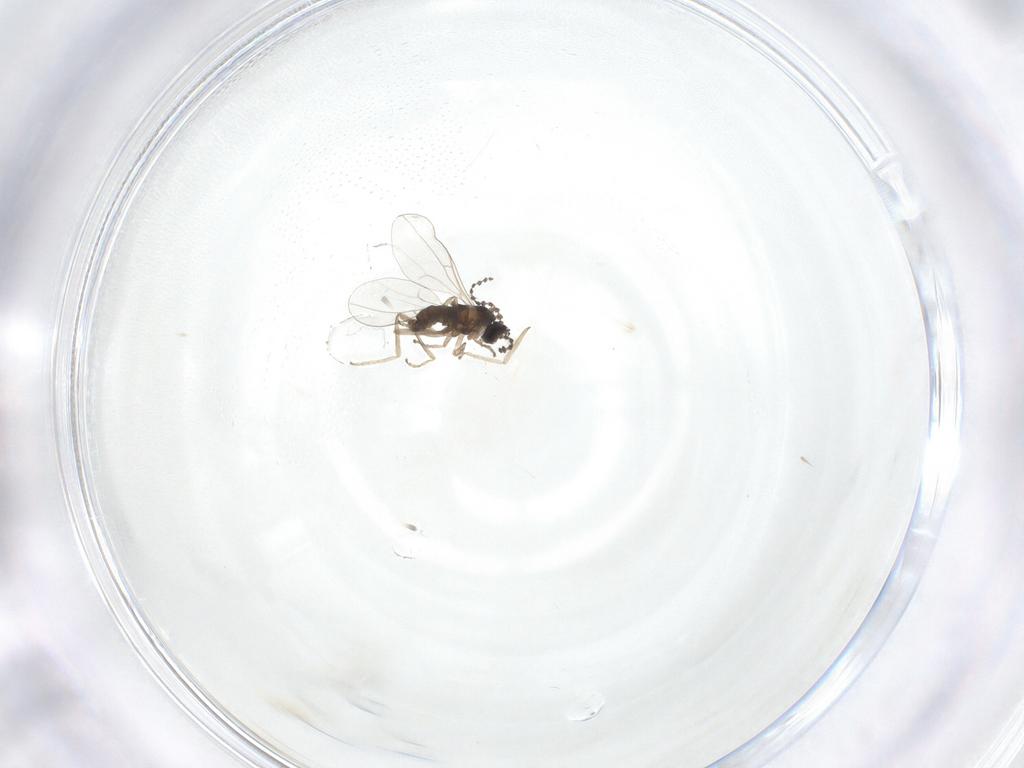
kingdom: Animalia
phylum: Arthropoda
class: Insecta
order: Diptera
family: Cecidomyiidae
